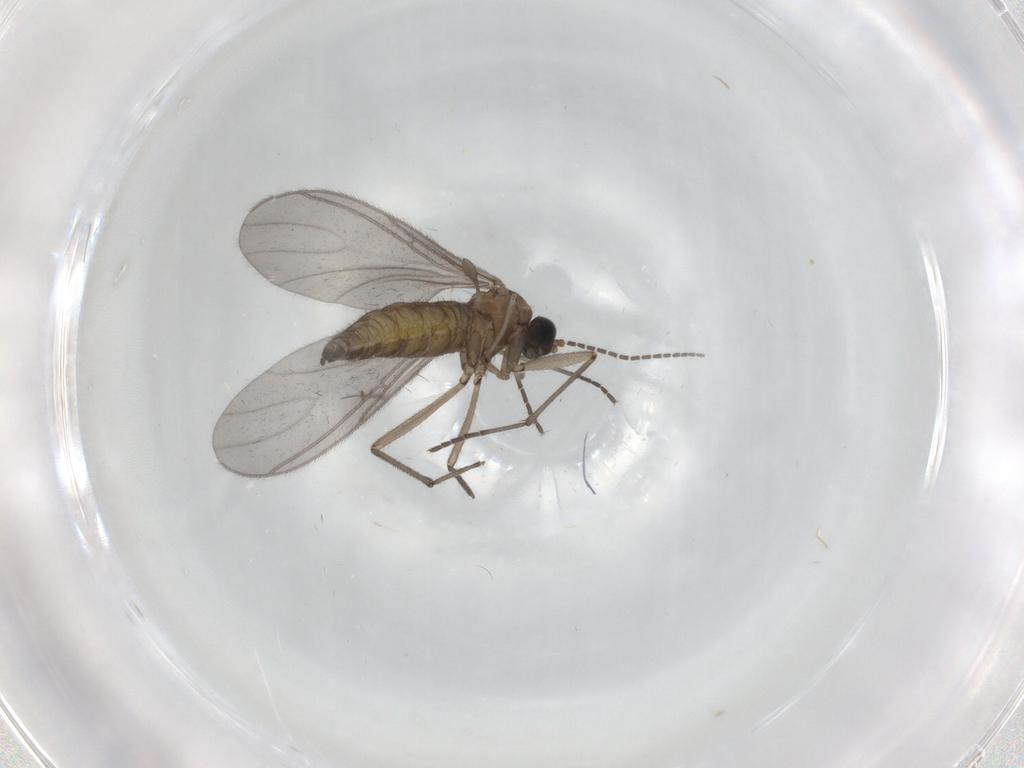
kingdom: Animalia
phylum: Arthropoda
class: Insecta
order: Diptera
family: Sciaridae
